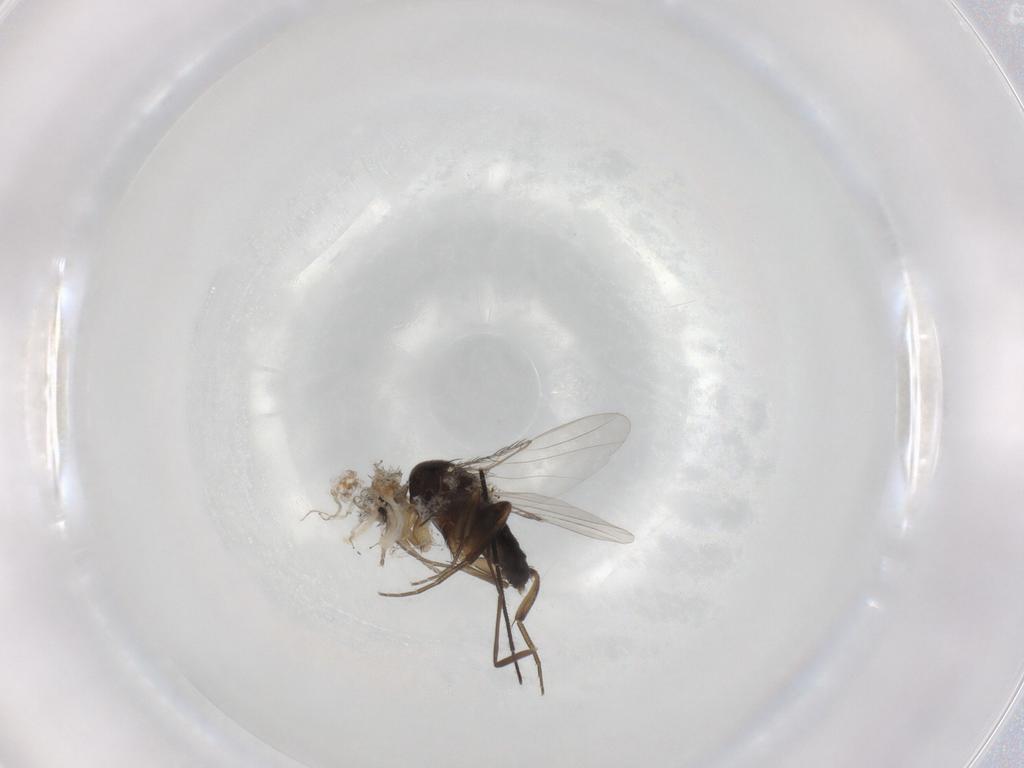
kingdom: Animalia
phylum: Arthropoda
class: Insecta
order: Diptera
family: Phoridae
